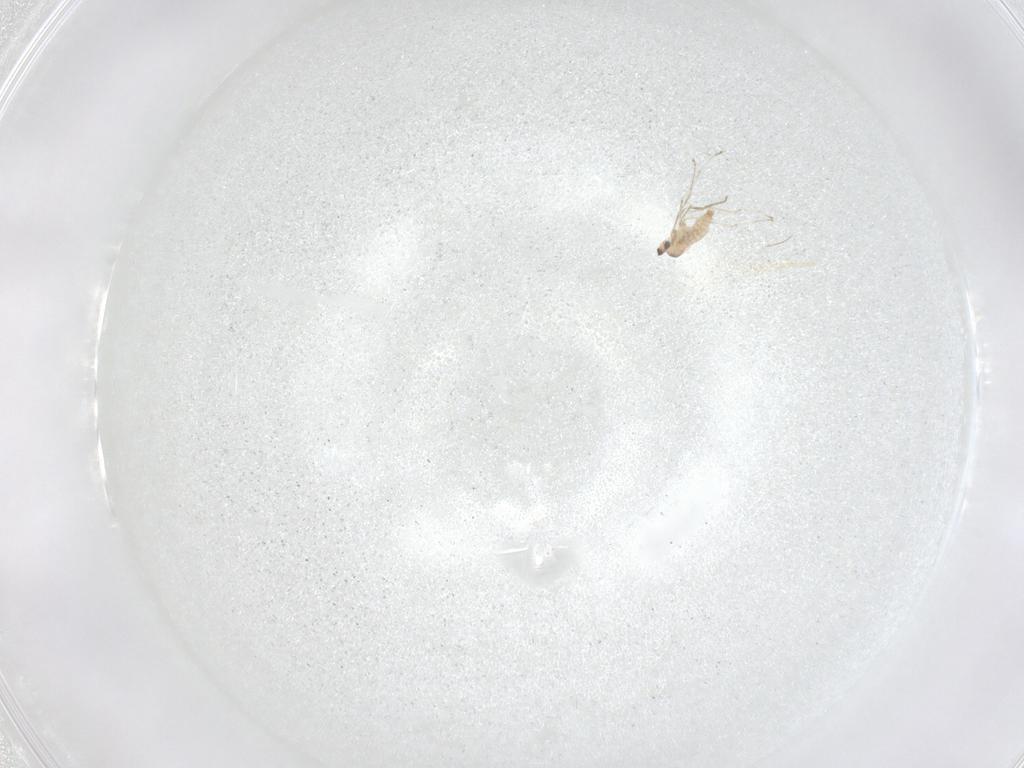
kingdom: Animalia
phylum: Arthropoda
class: Insecta
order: Diptera
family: Cecidomyiidae
